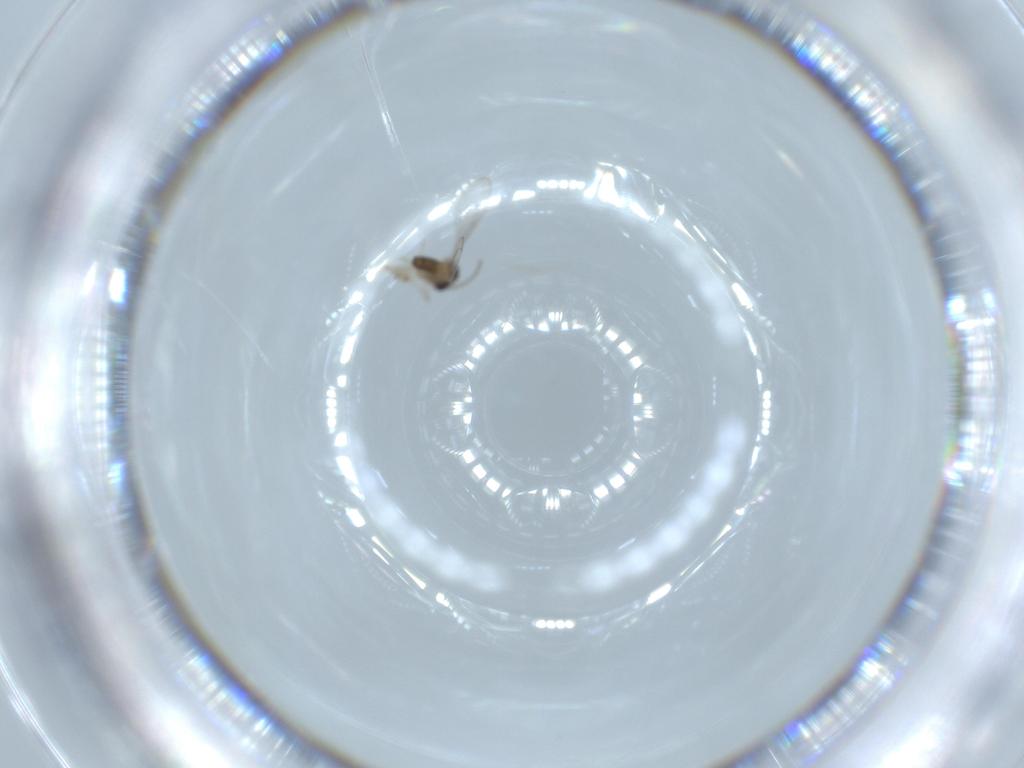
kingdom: Animalia
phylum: Arthropoda
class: Insecta
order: Diptera
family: Cecidomyiidae
